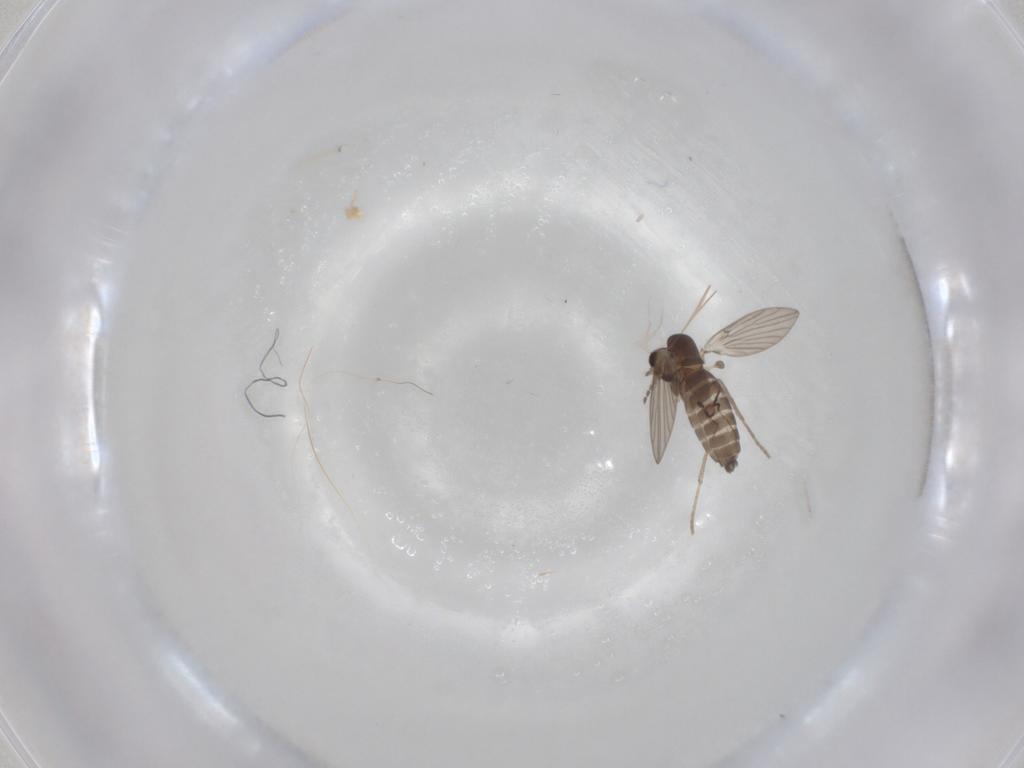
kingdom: Animalia
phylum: Arthropoda
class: Insecta
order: Diptera
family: Psychodidae
